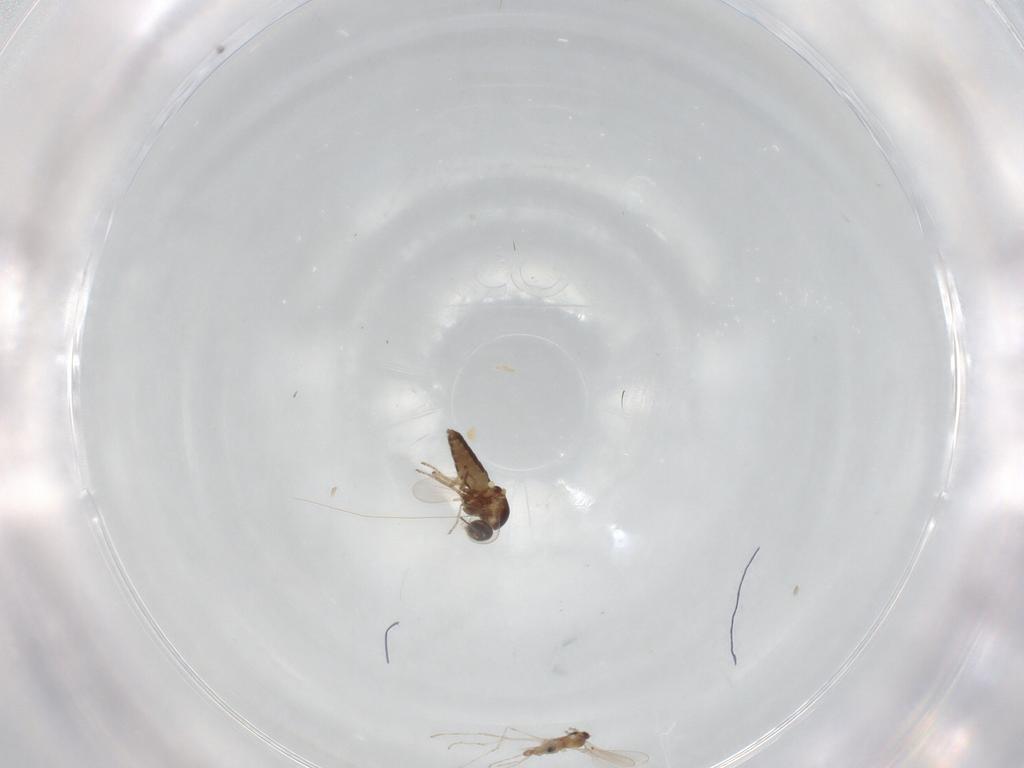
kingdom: Animalia
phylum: Arthropoda
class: Insecta
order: Diptera
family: Ceratopogonidae
